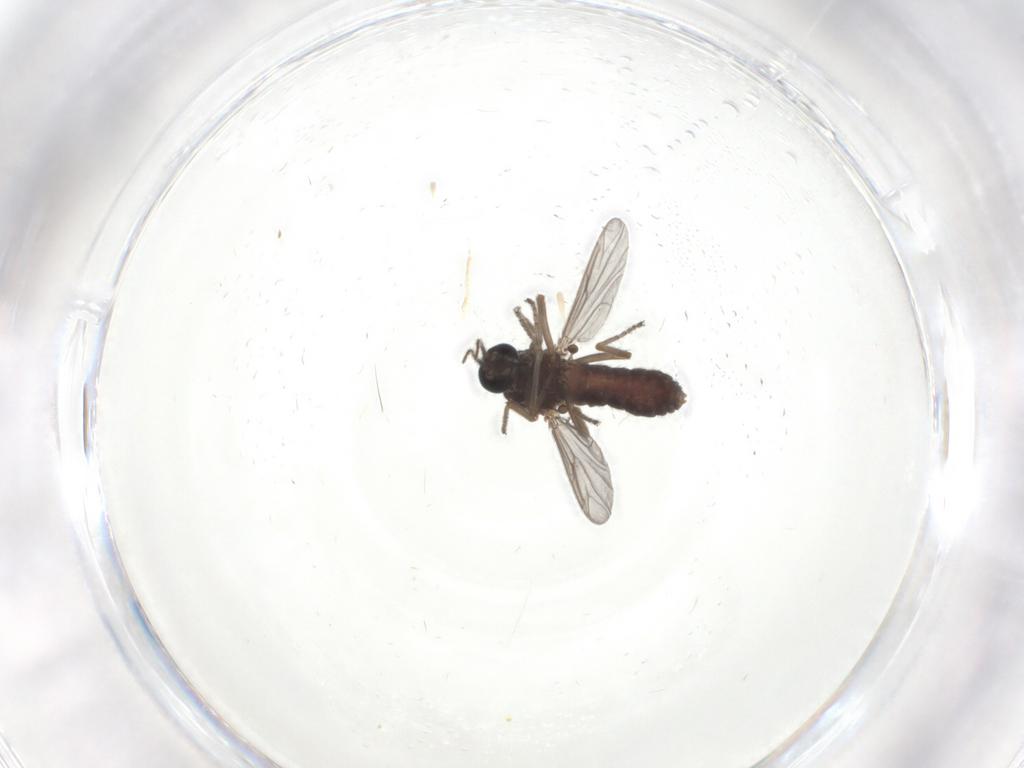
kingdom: Animalia
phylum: Arthropoda
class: Insecta
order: Diptera
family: Ceratopogonidae
